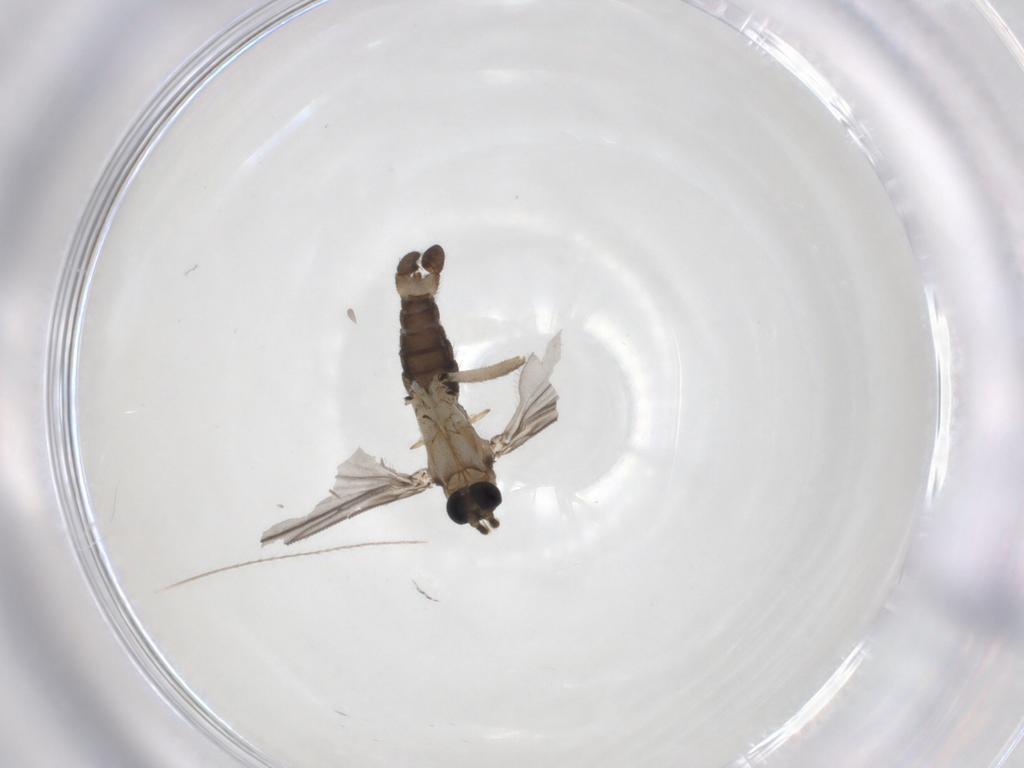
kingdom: Animalia
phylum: Arthropoda
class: Insecta
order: Diptera
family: Sciaridae
